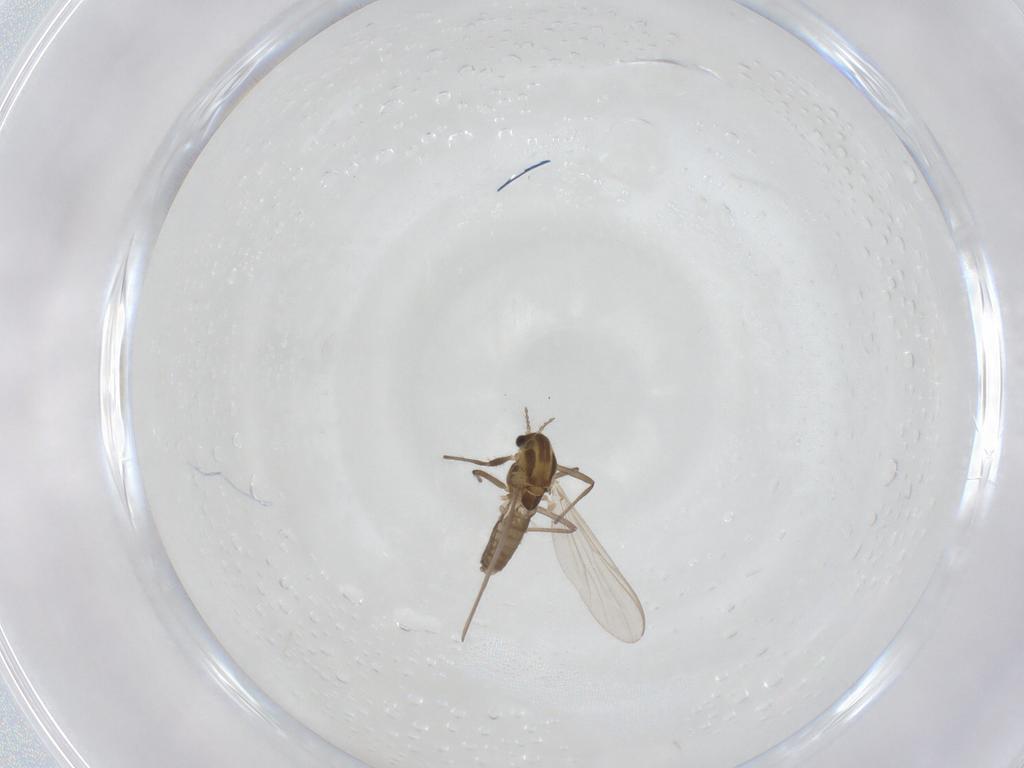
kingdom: Animalia
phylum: Arthropoda
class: Insecta
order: Diptera
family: Chironomidae
